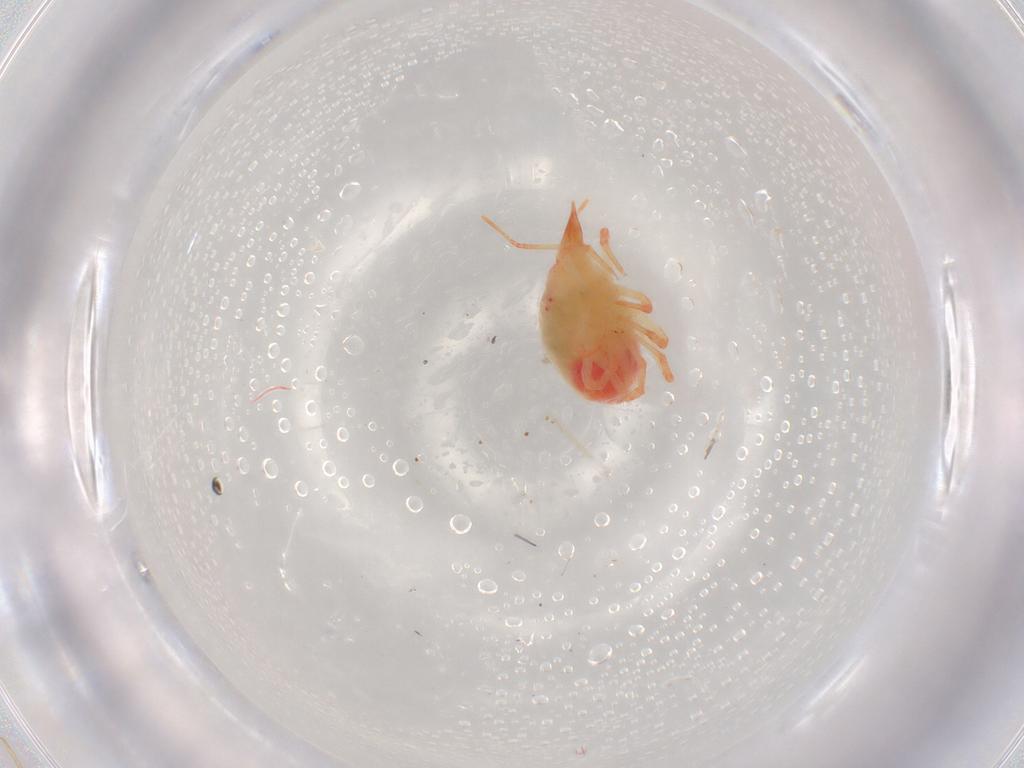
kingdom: Animalia
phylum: Arthropoda
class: Arachnida
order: Trombidiformes
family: Bdellidae
